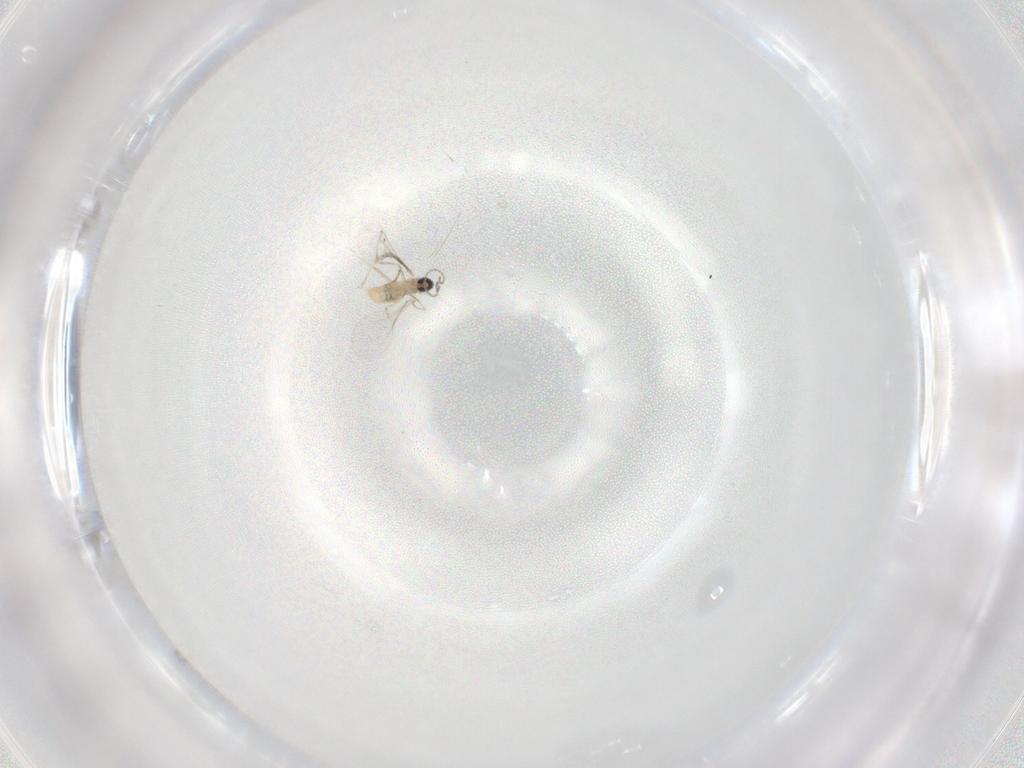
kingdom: Animalia
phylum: Arthropoda
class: Insecta
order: Diptera
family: Cecidomyiidae
